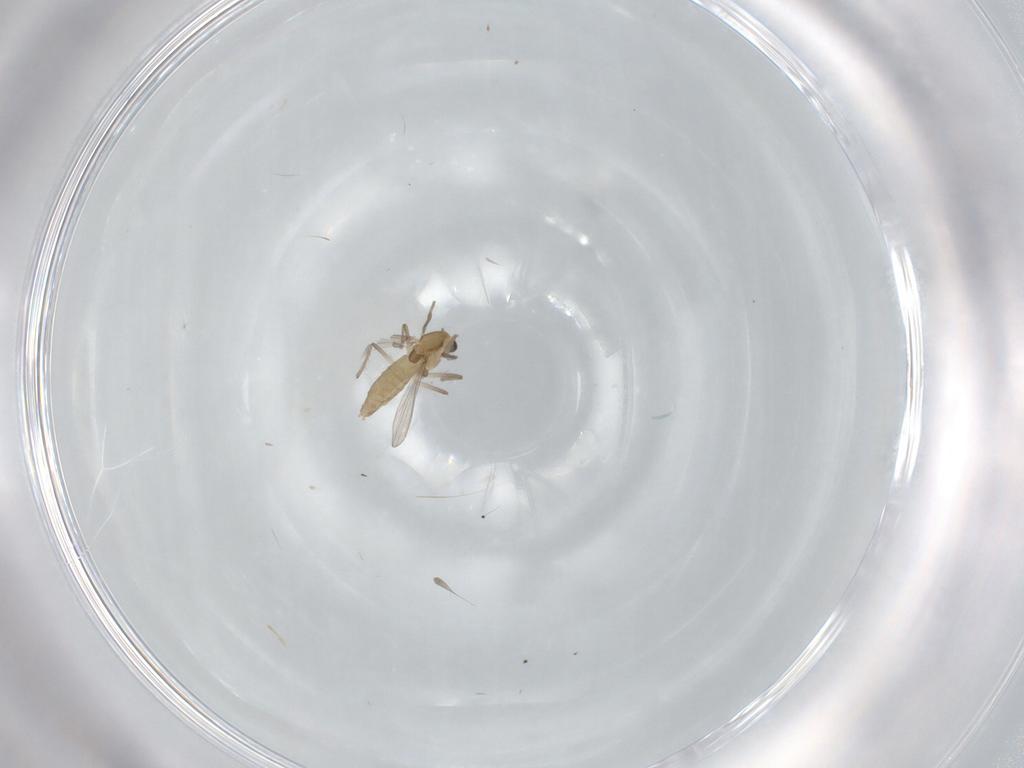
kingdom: Animalia
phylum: Arthropoda
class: Insecta
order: Diptera
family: Chironomidae
